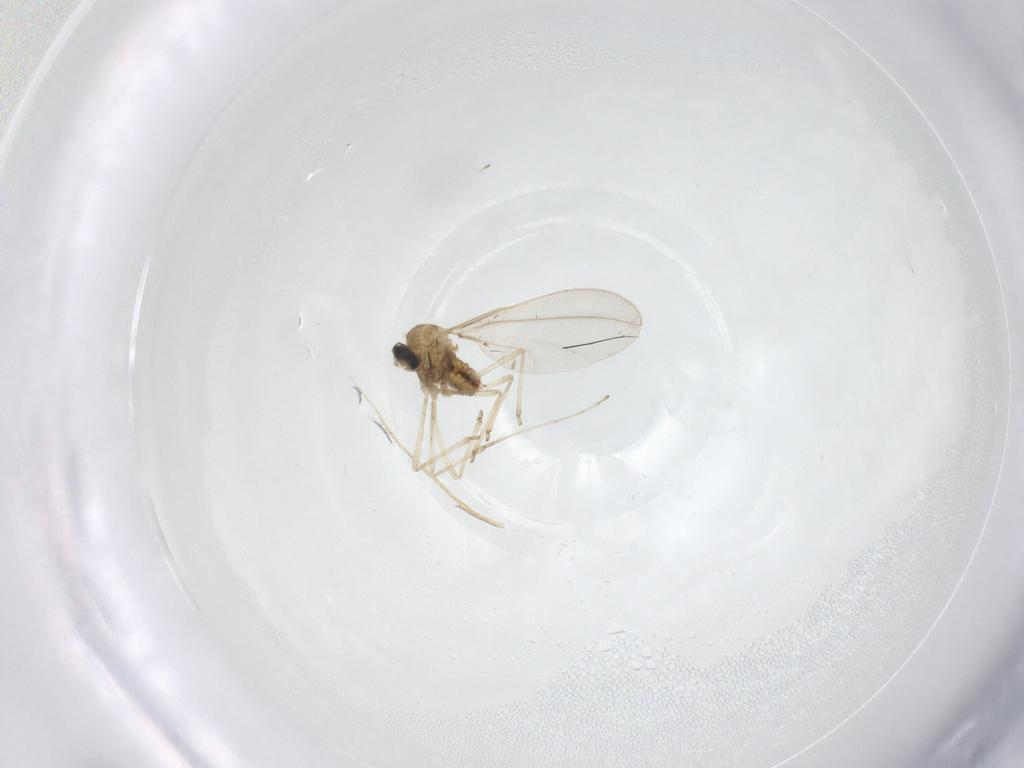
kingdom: Animalia
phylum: Arthropoda
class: Insecta
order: Diptera
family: Cecidomyiidae
